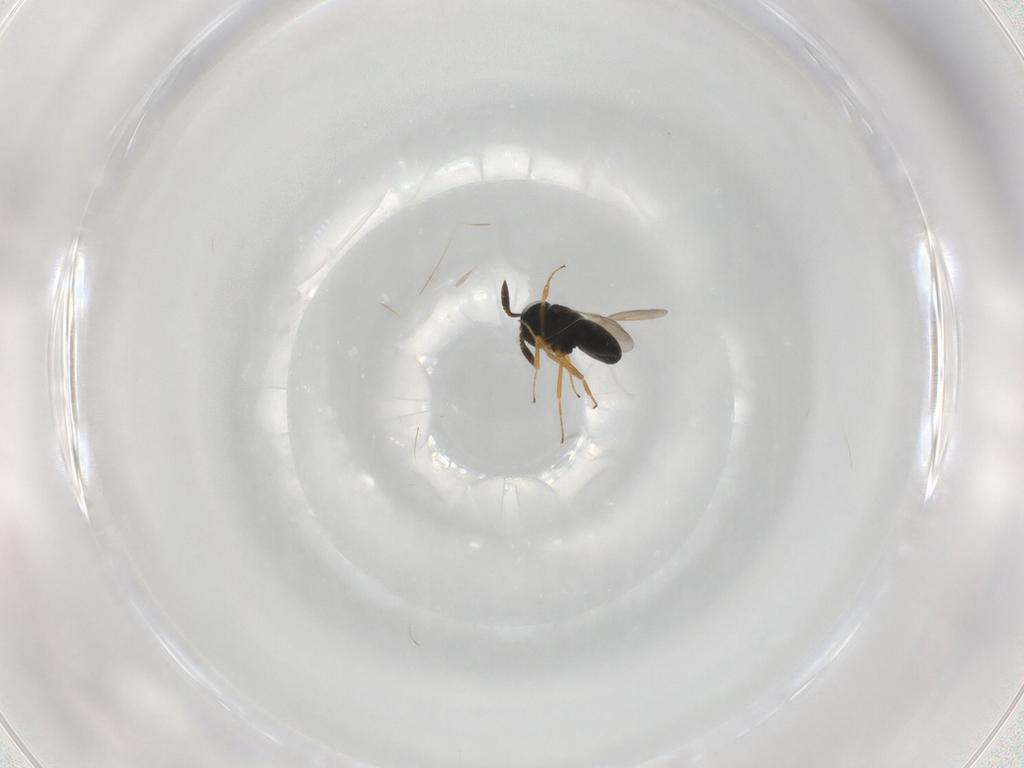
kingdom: Animalia
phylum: Arthropoda
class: Insecta
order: Hymenoptera
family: Scelionidae
